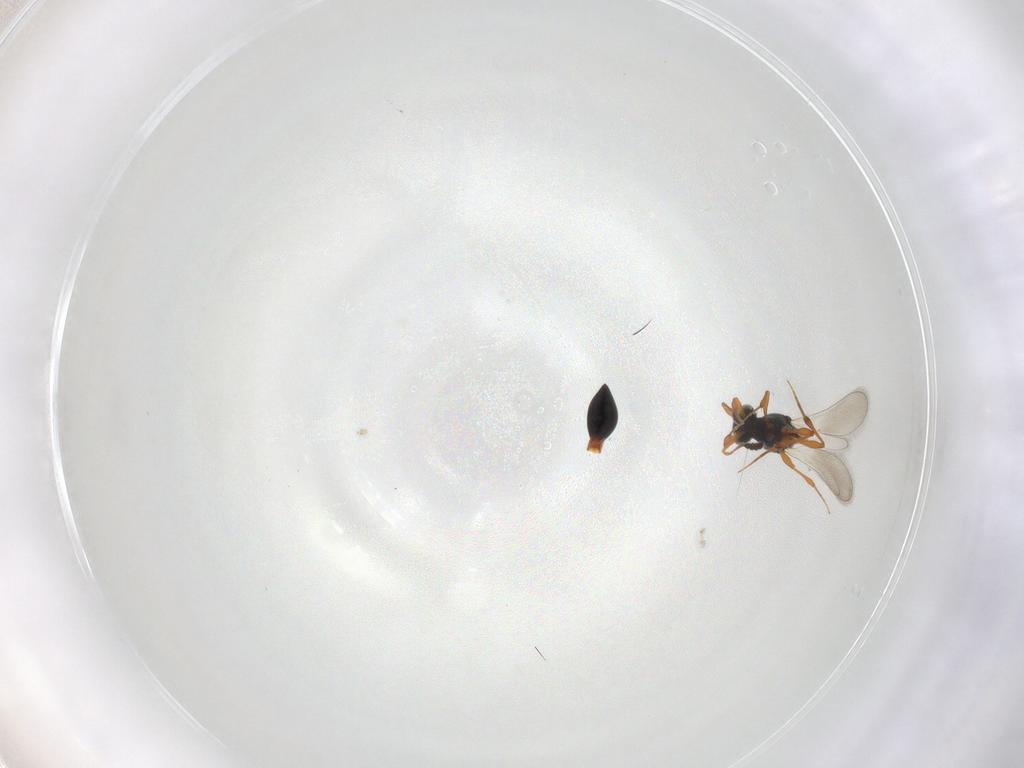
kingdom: Animalia
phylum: Arthropoda
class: Insecta
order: Hymenoptera
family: Platygastridae
